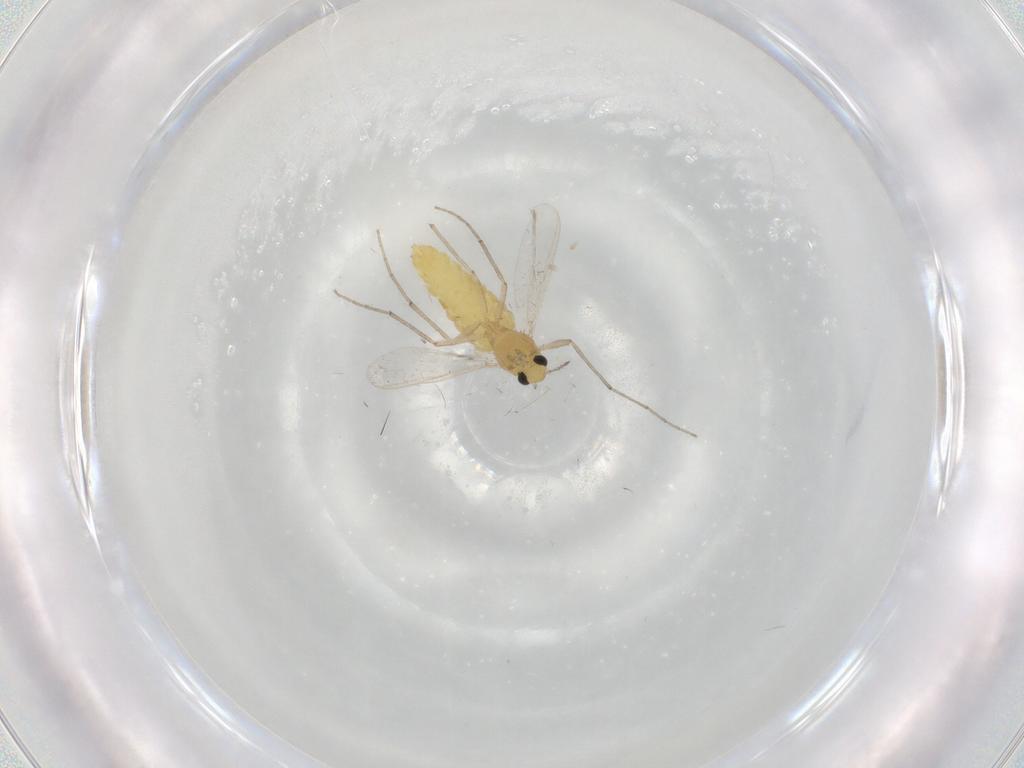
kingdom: Animalia
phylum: Arthropoda
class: Insecta
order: Diptera
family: Chironomidae
